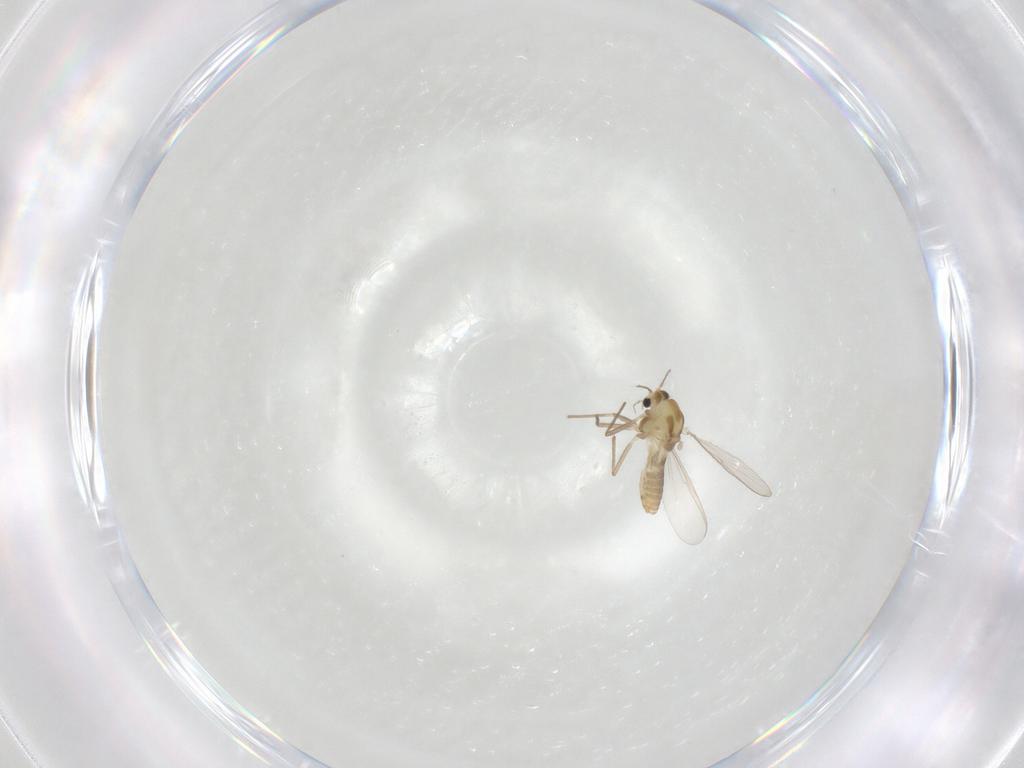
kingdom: Animalia
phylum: Arthropoda
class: Insecta
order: Diptera
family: Chironomidae
